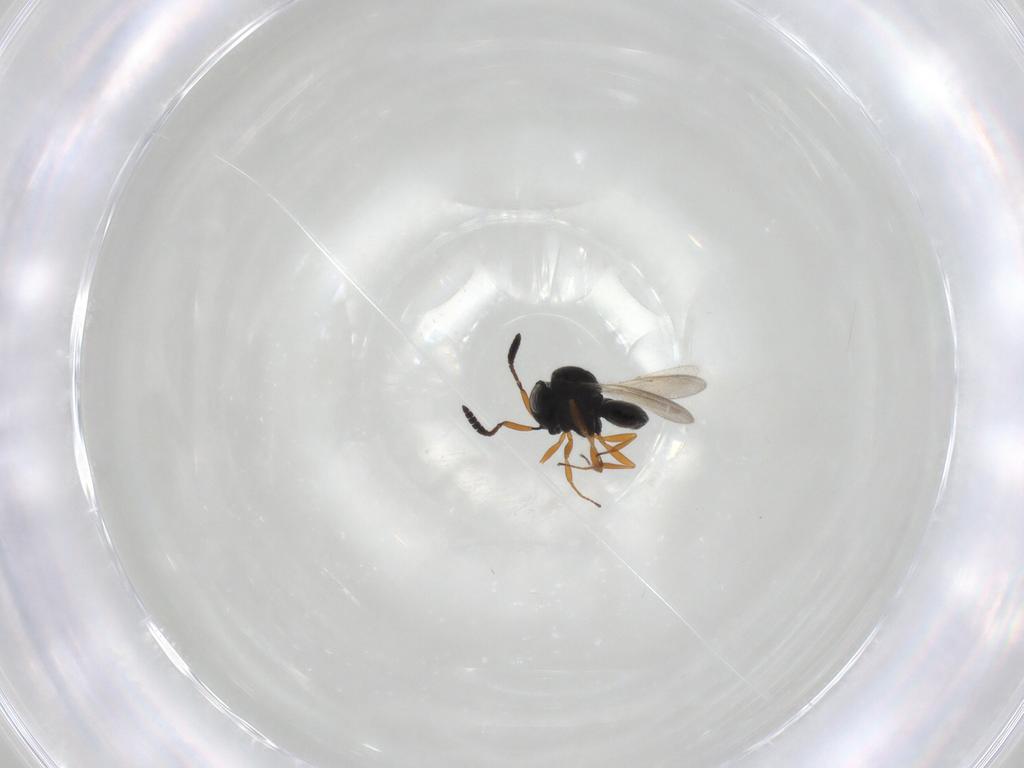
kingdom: Animalia
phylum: Arthropoda
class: Insecta
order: Hymenoptera
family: Scelionidae
